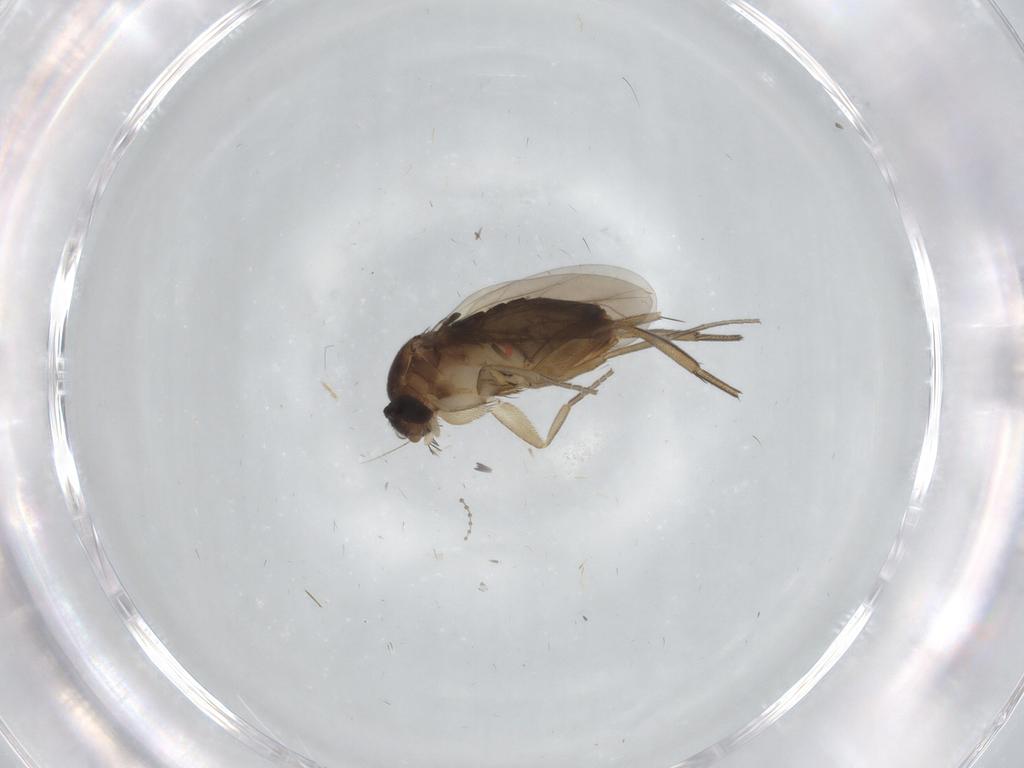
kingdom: Animalia
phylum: Arthropoda
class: Insecta
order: Diptera
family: Phoridae
